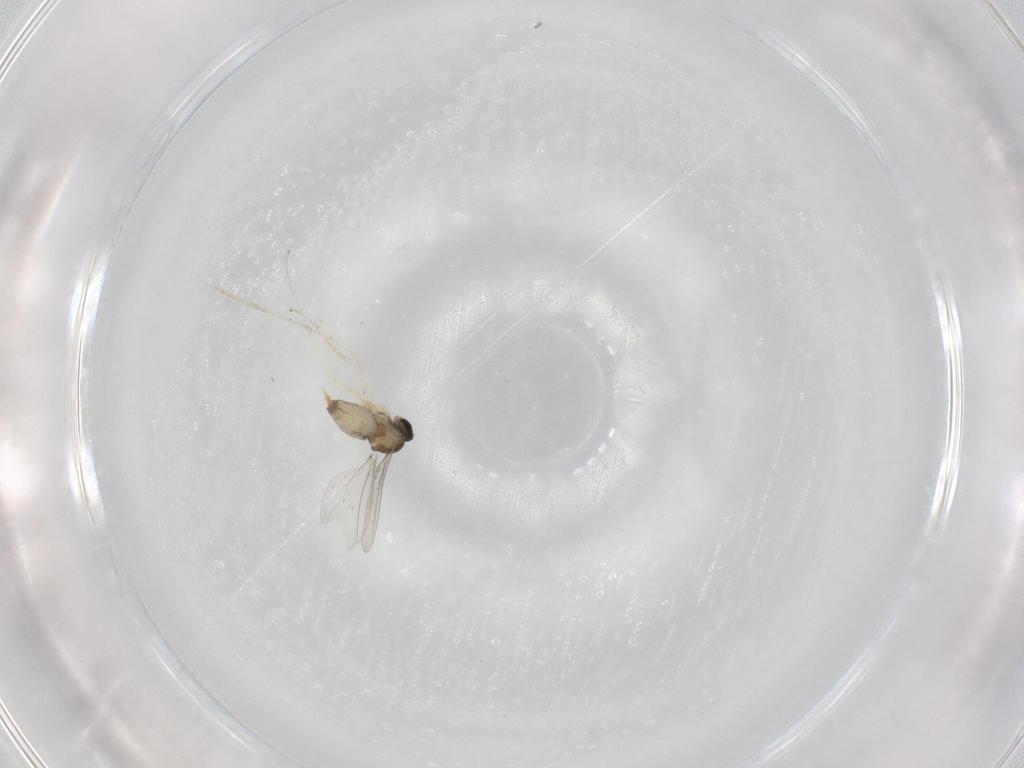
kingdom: Animalia
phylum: Arthropoda
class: Insecta
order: Diptera
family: Cecidomyiidae
